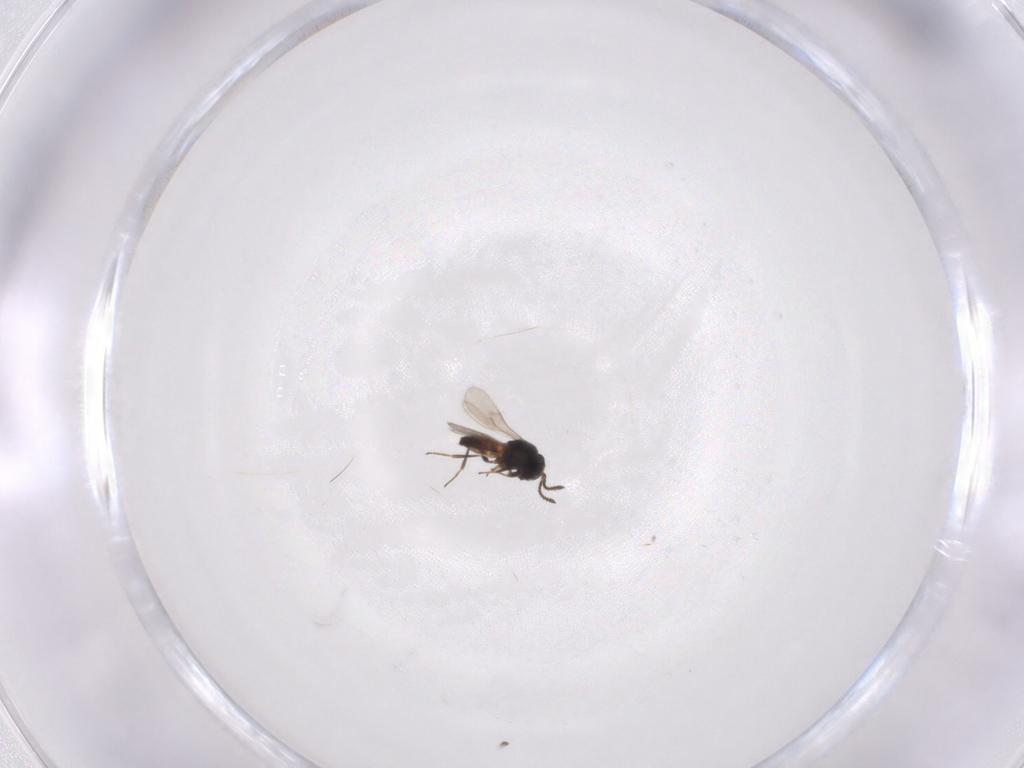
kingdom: Animalia
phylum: Arthropoda
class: Insecta
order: Hymenoptera
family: Scelionidae
